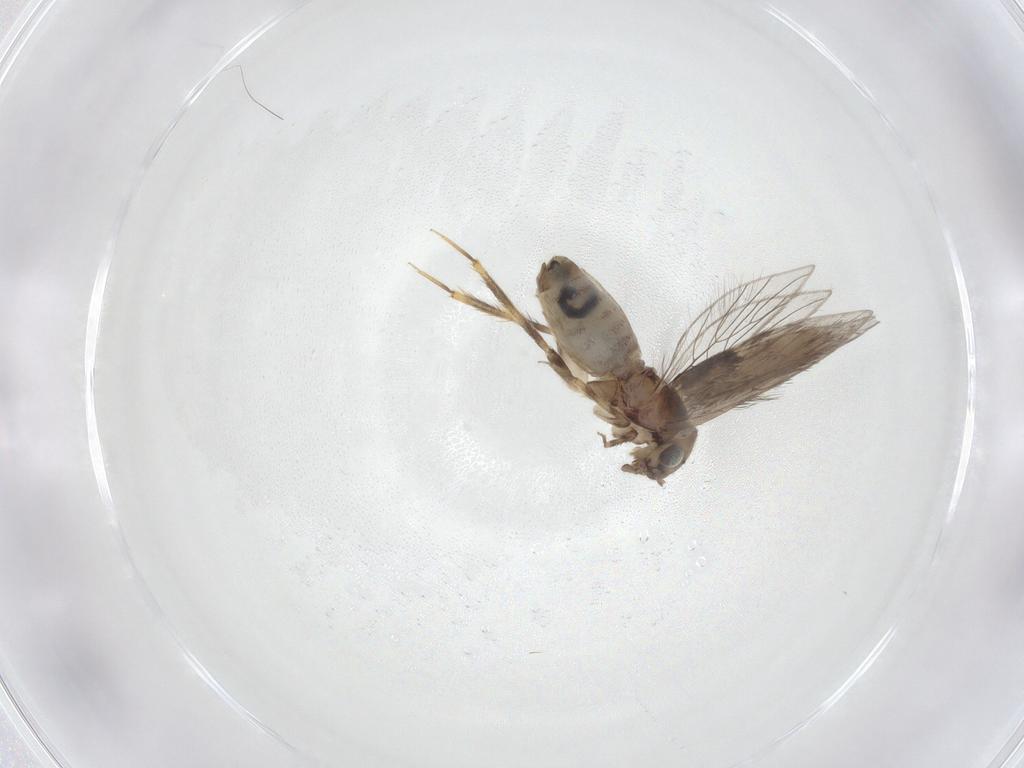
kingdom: Animalia
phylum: Arthropoda
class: Insecta
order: Psocodea
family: Lepidopsocidae
